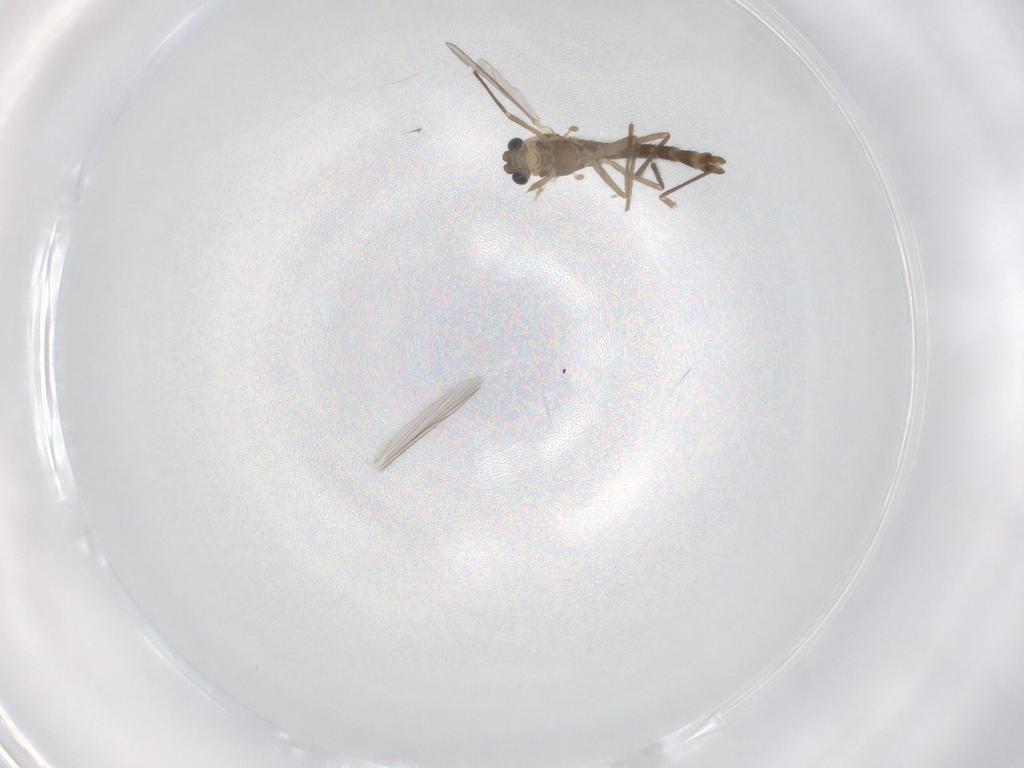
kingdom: Animalia
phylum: Arthropoda
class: Insecta
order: Diptera
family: Chironomidae
